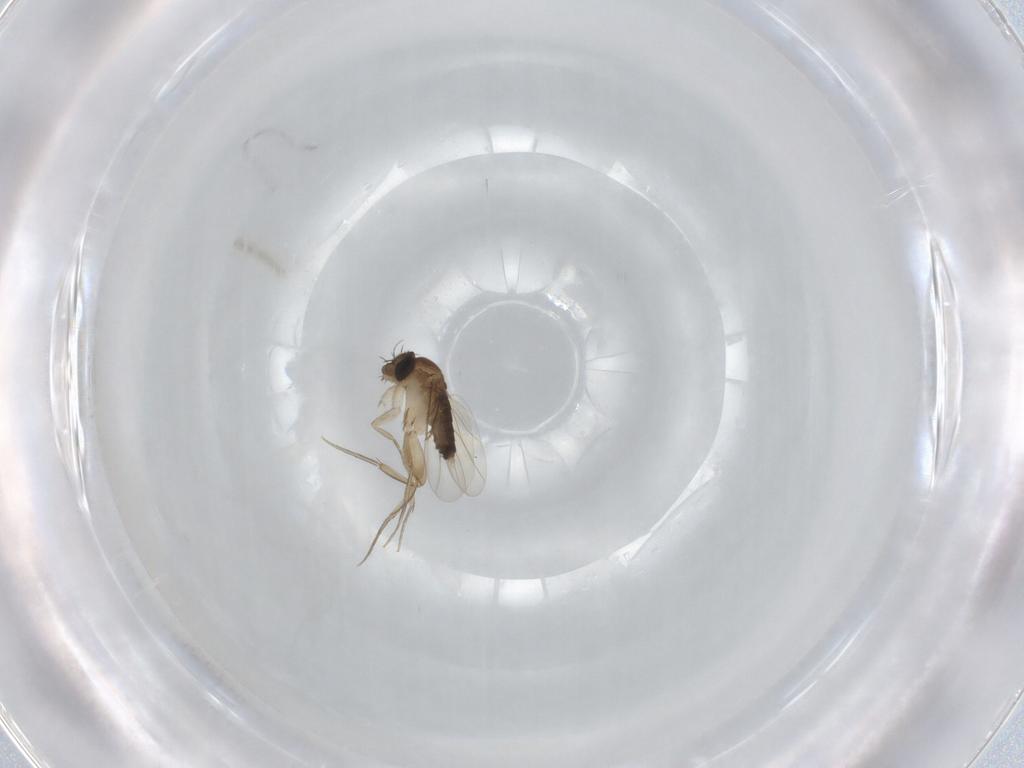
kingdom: Animalia
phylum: Arthropoda
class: Insecta
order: Diptera
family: Phoridae
